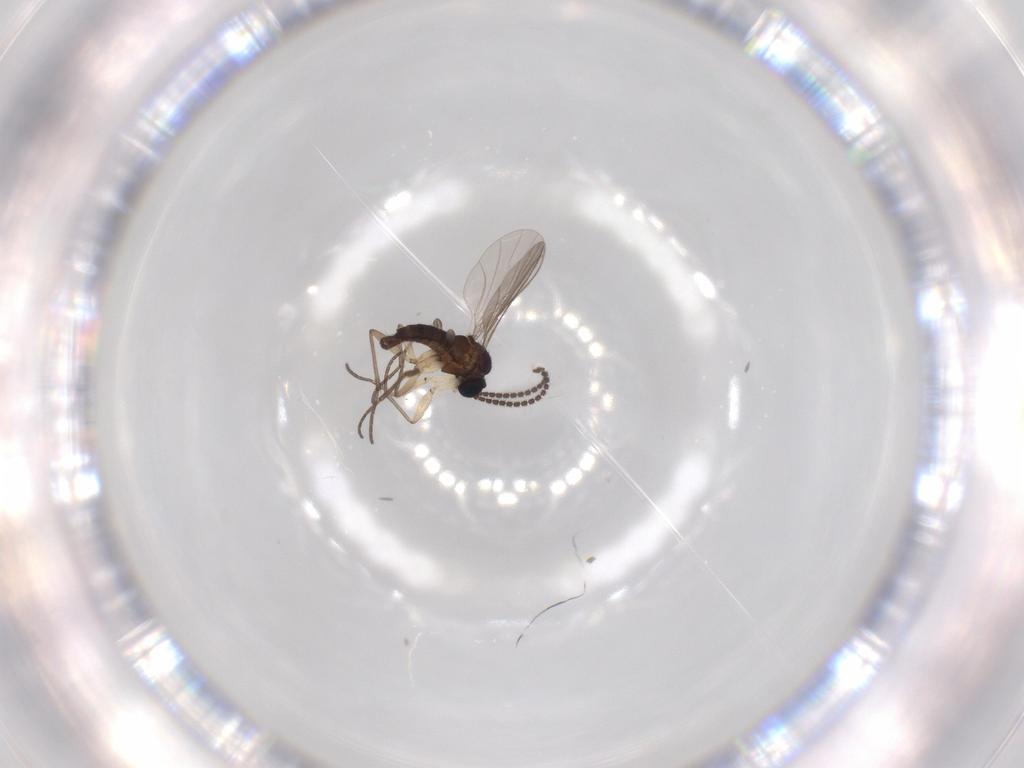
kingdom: Animalia
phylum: Arthropoda
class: Insecta
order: Diptera
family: Sciaridae
